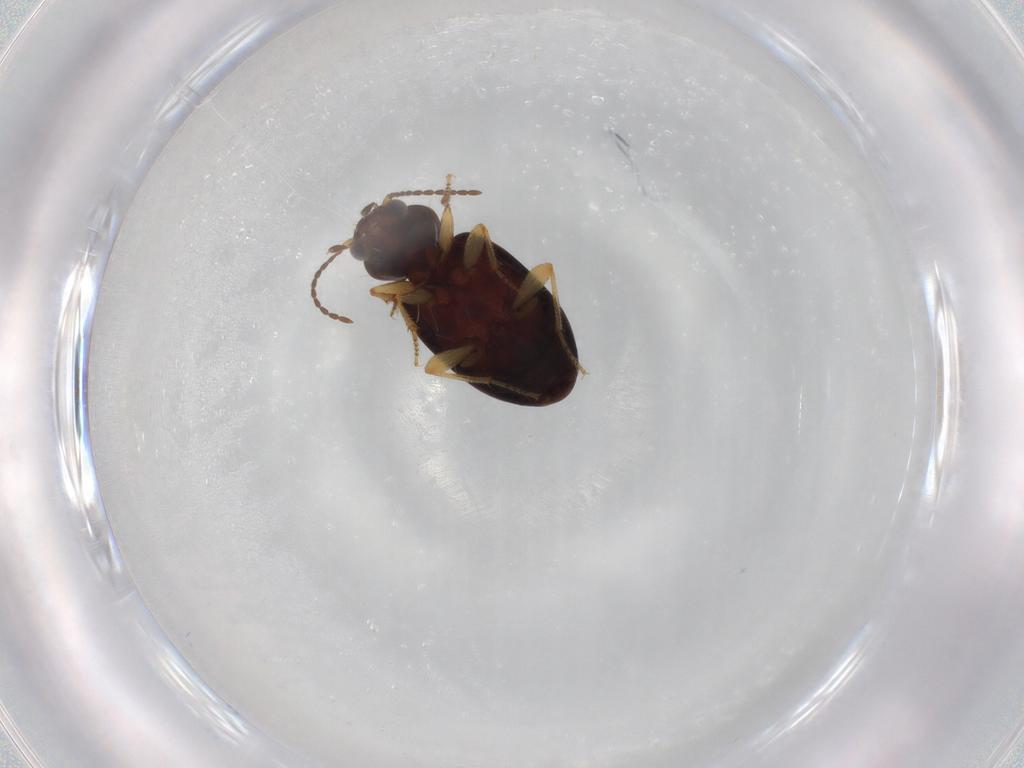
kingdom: Animalia
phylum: Arthropoda
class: Insecta
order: Coleoptera
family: Carabidae
